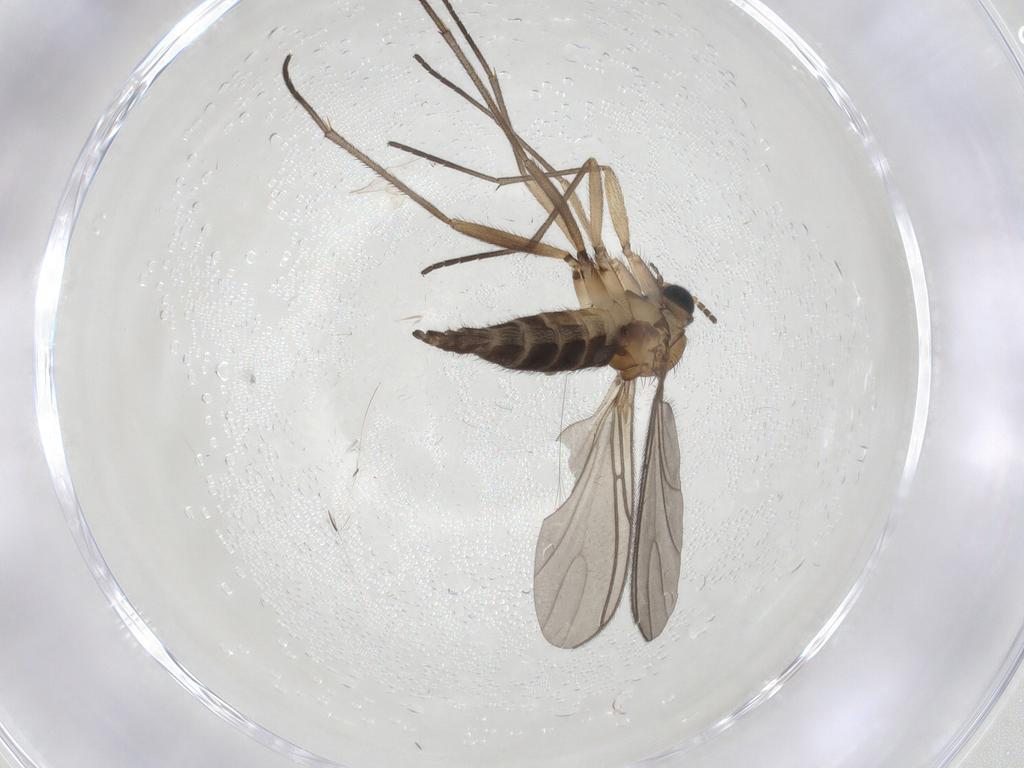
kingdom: Animalia
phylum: Arthropoda
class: Insecta
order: Diptera
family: Sciaridae
